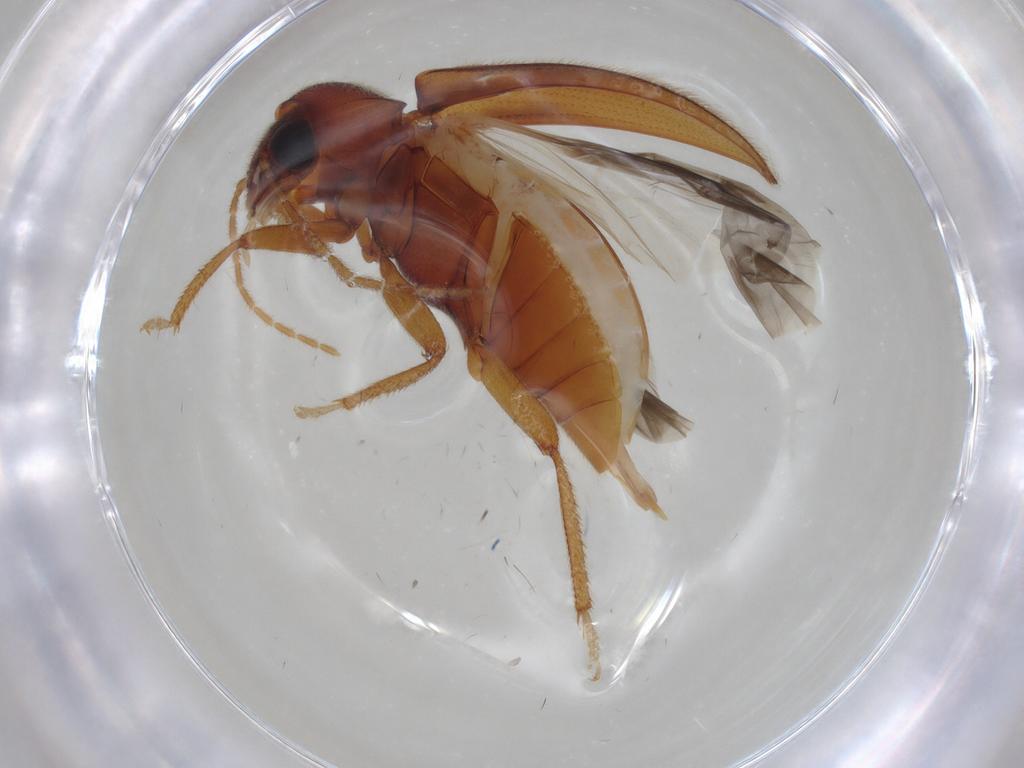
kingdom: Animalia
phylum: Arthropoda
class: Insecta
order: Coleoptera
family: Ptilodactylidae
